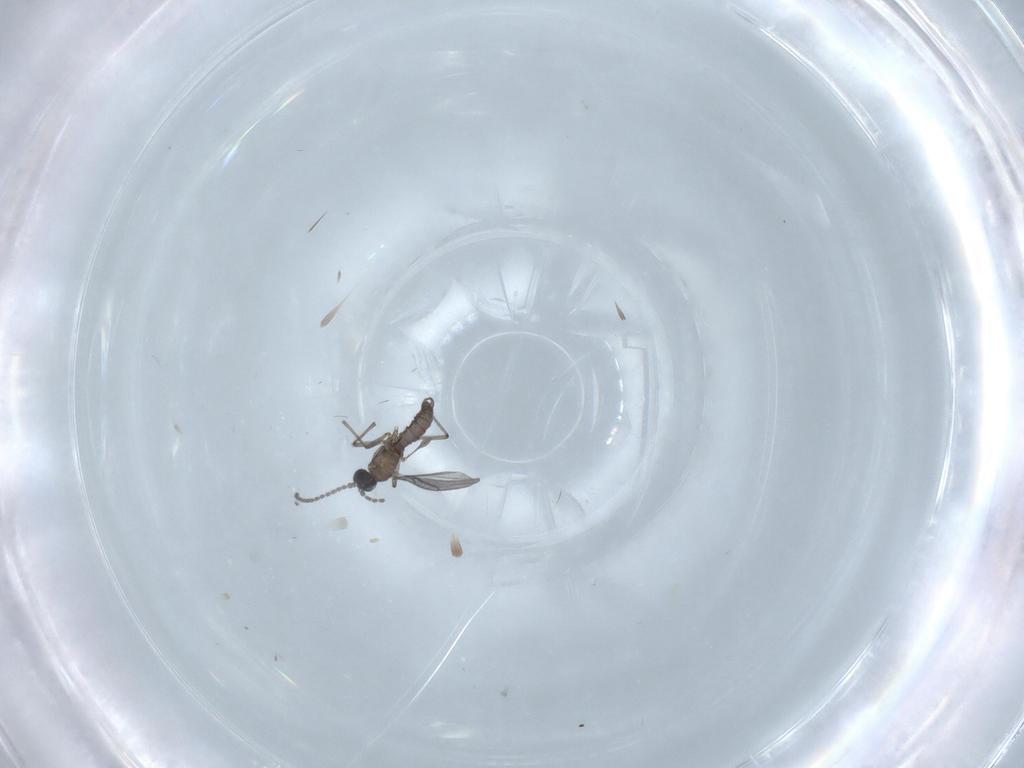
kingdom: Animalia
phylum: Arthropoda
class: Insecta
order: Diptera
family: Sciaridae
